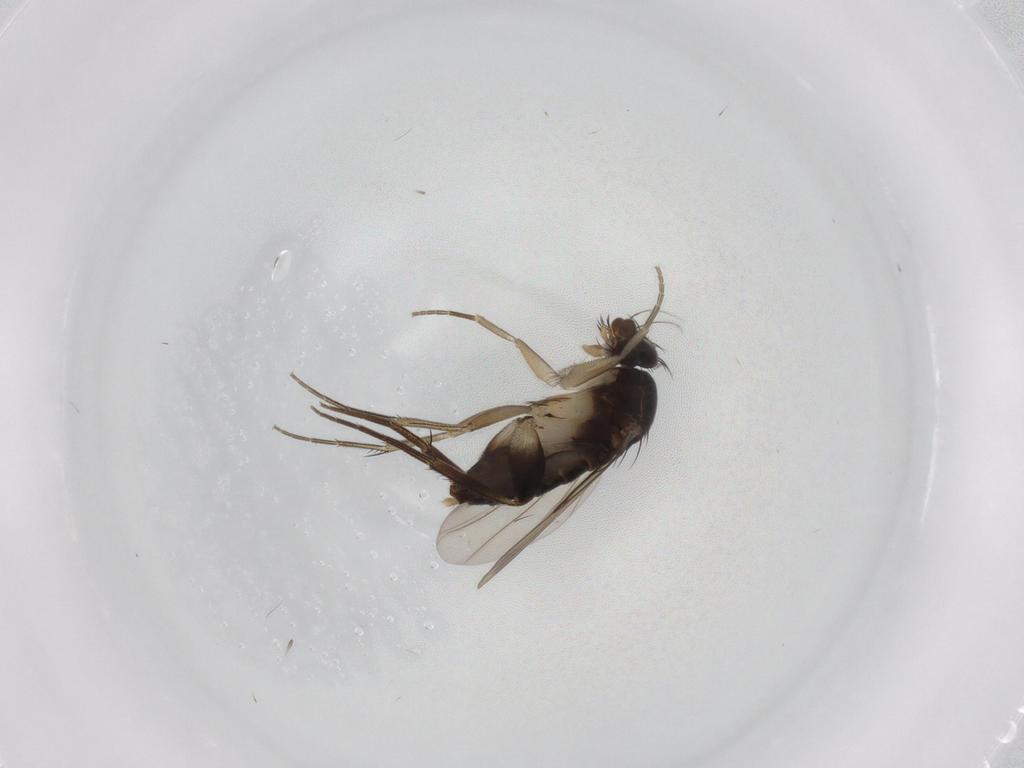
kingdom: Animalia
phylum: Arthropoda
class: Insecta
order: Diptera
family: Phoridae
